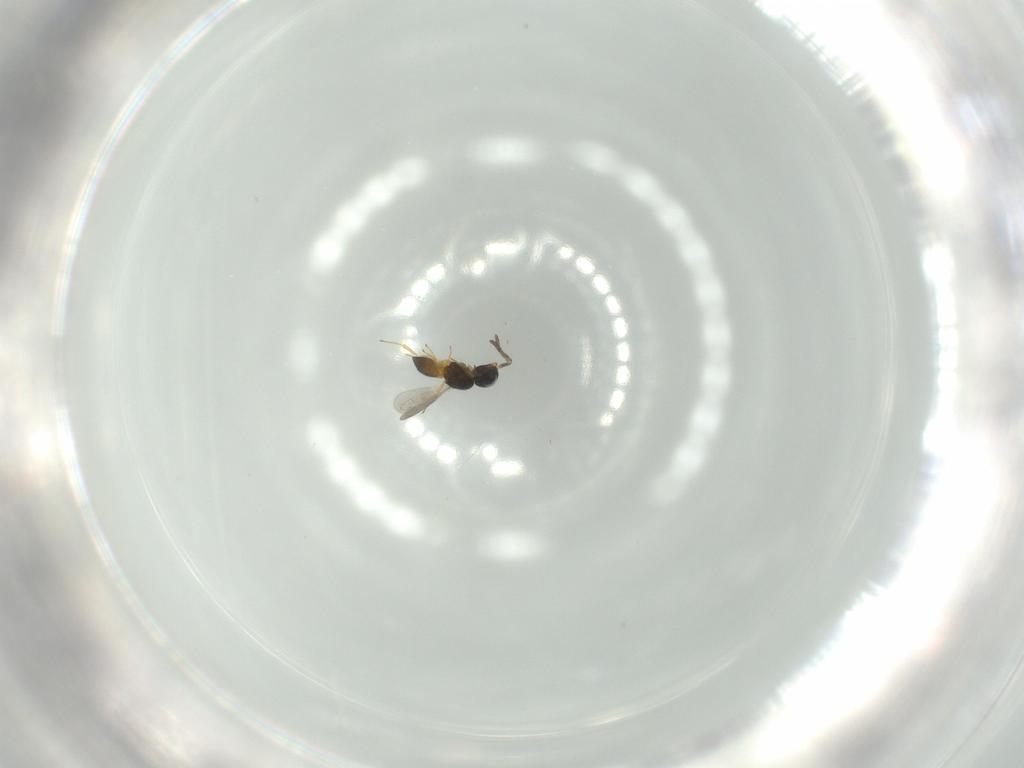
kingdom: Animalia
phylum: Arthropoda
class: Insecta
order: Hymenoptera
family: Scelionidae
